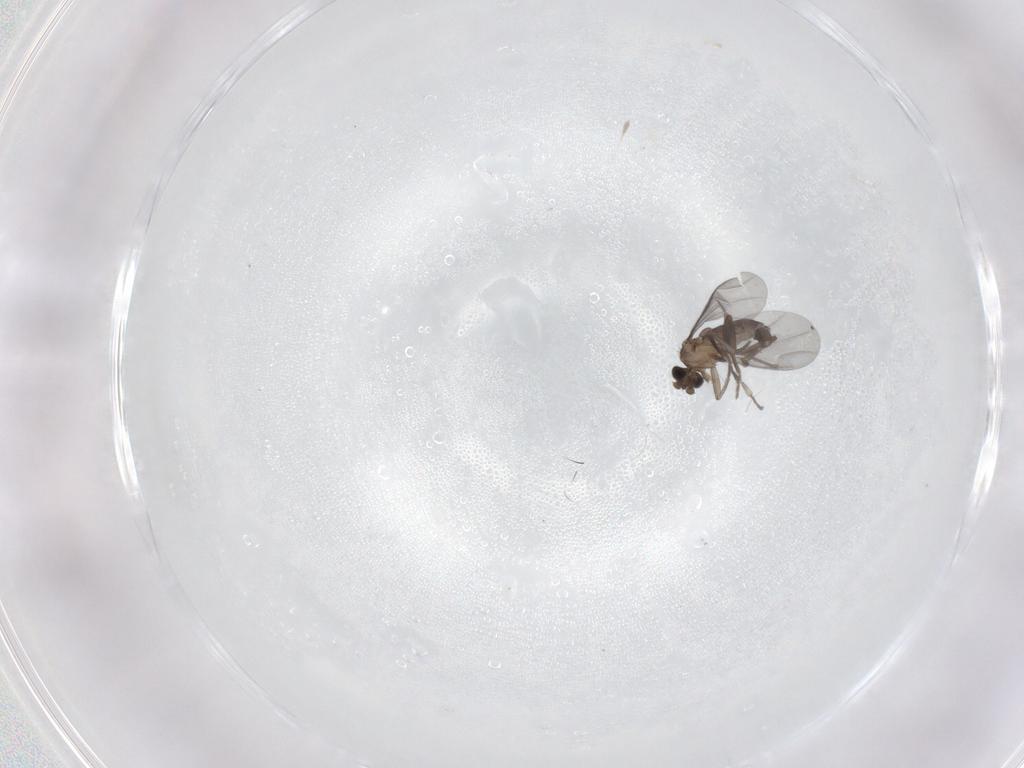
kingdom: Animalia
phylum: Arthropoda
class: Insecta
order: Diptera
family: Phoridae
